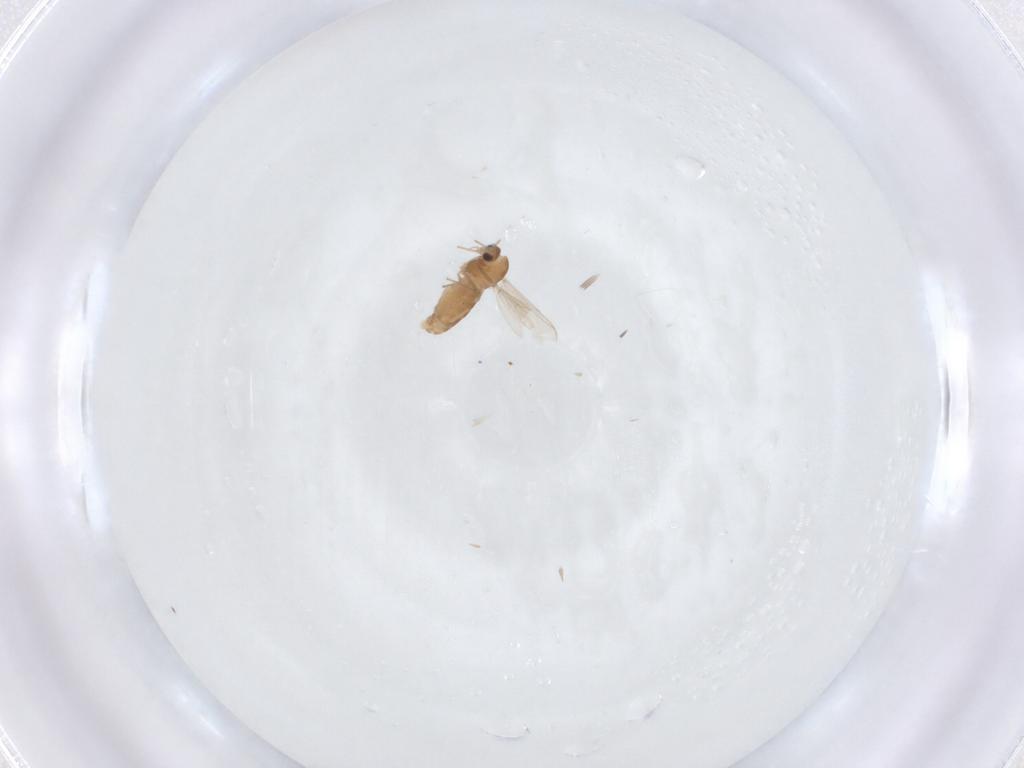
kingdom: Animalia
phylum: Arthropoda
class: Insecta
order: Diptera
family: Chironomidae
